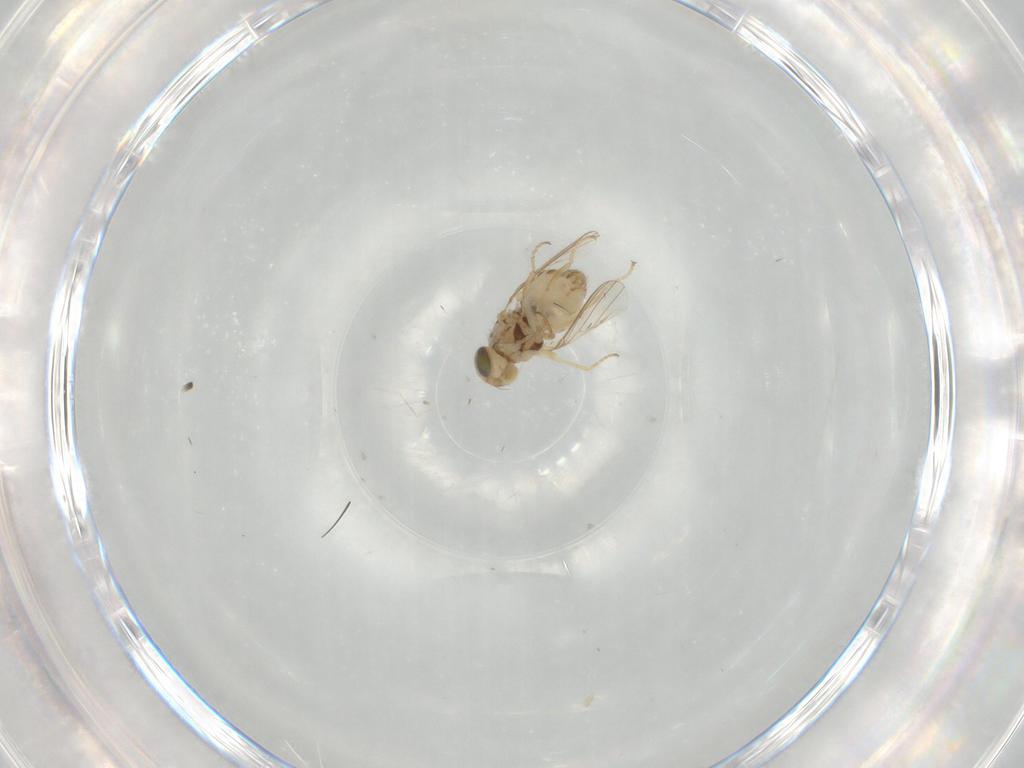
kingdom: Animalia
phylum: Arthropoda
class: Insecta
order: Diptera
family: Chyromyidae
